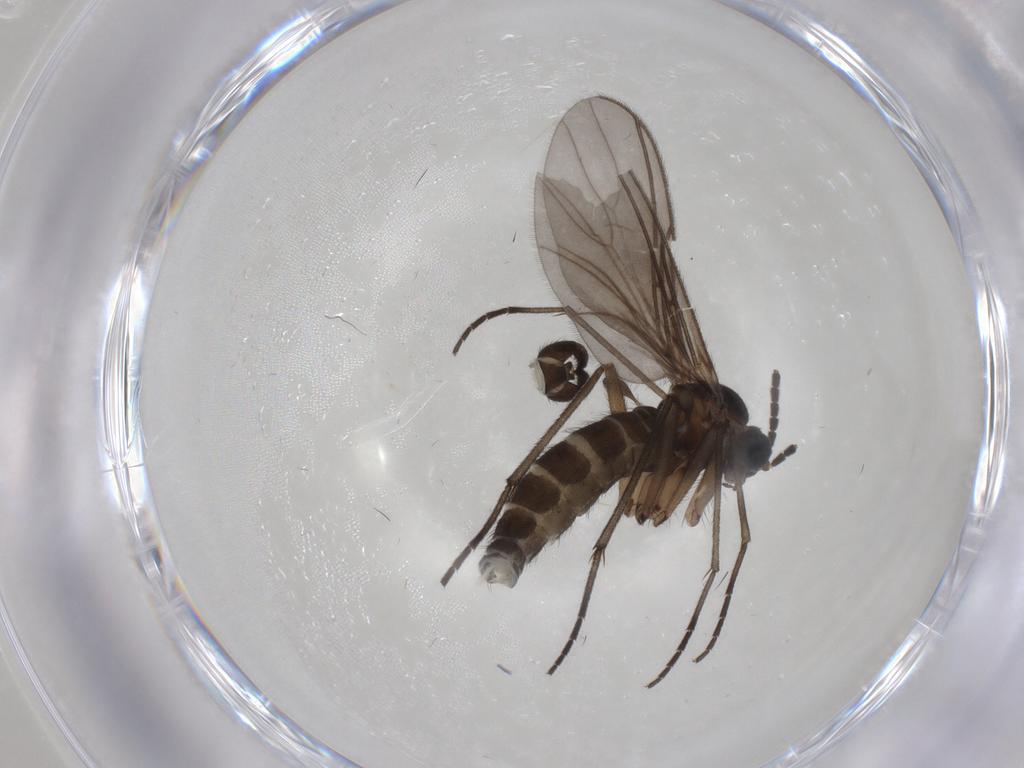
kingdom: Animalia
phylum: Arthropoda
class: Insecta
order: Diptera
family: Sciaridae
